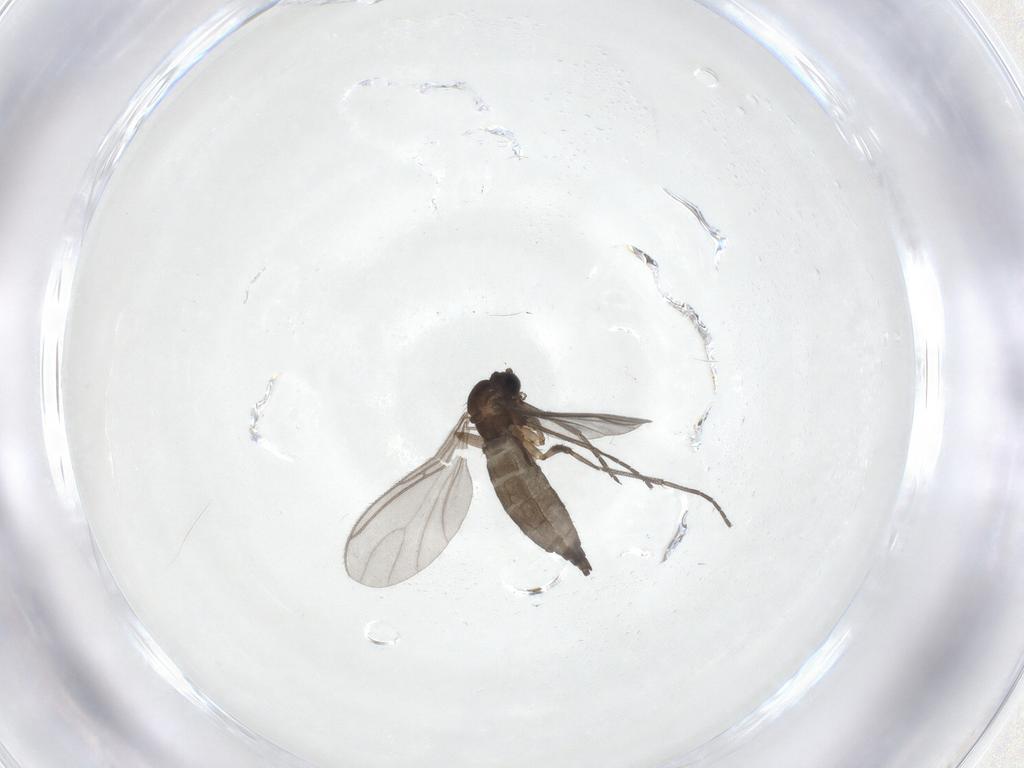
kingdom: Animalia
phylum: Arthropoda
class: Insecta
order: Diptera
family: Sciaridae
